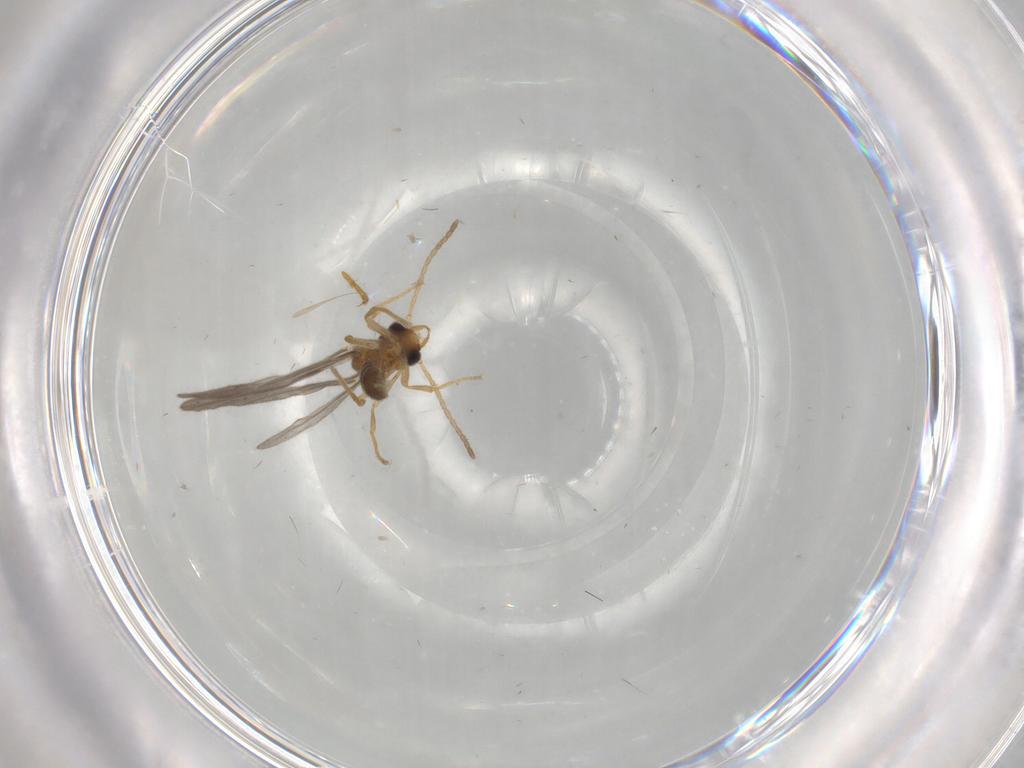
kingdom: Animalia
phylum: Arthropoda
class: Insecta
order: Hymenoptera
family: Formicidae
